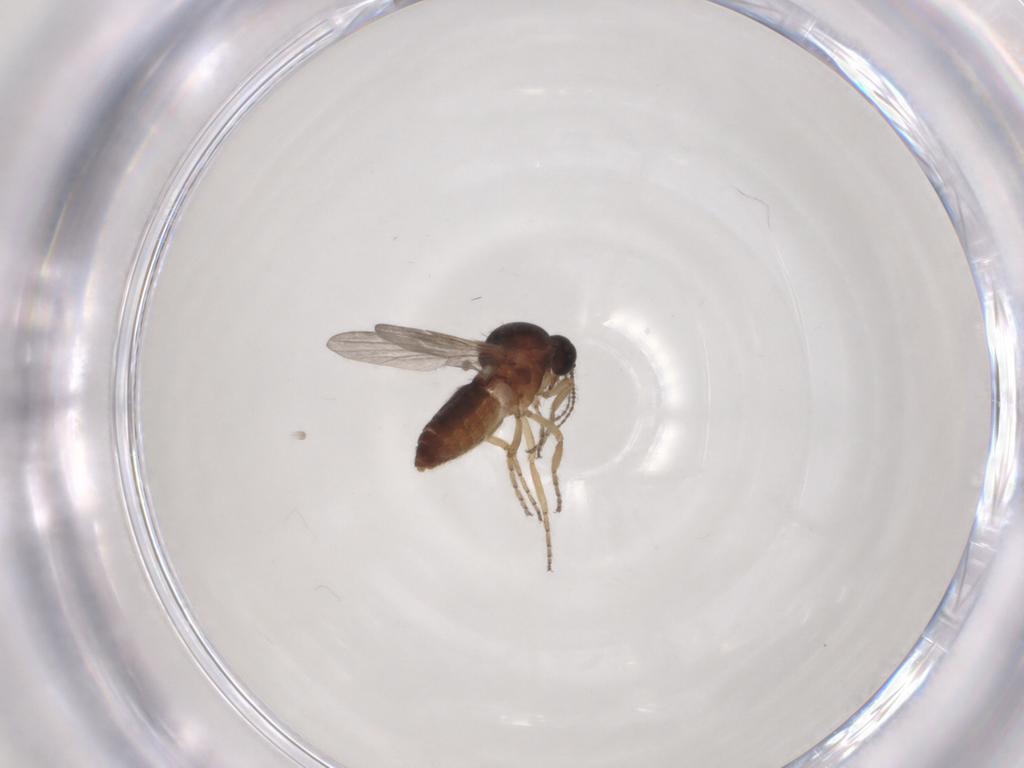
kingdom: Animalia
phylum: Arthropoda
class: Insecta
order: Diptera
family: Ceratopogonidae
